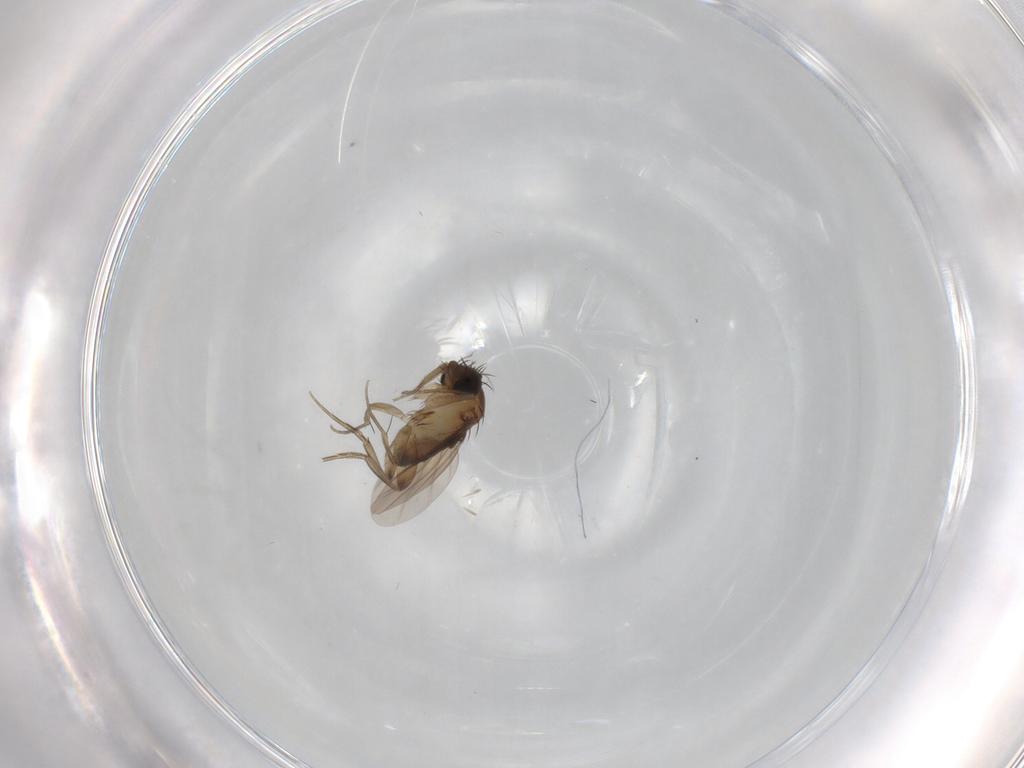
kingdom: Animalia
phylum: Arthropoda
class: Insecta
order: Diptera
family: Phoridae
